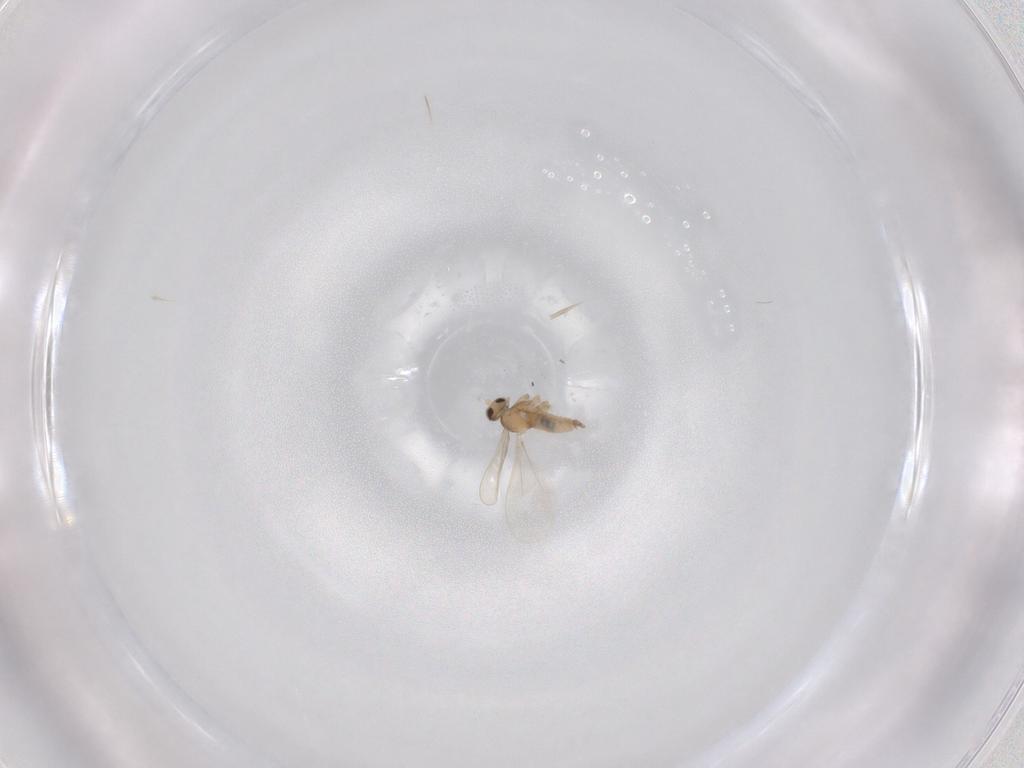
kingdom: Animalia
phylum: Arthropoda
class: Insecta
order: Diptera
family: Cecidomyiidae
